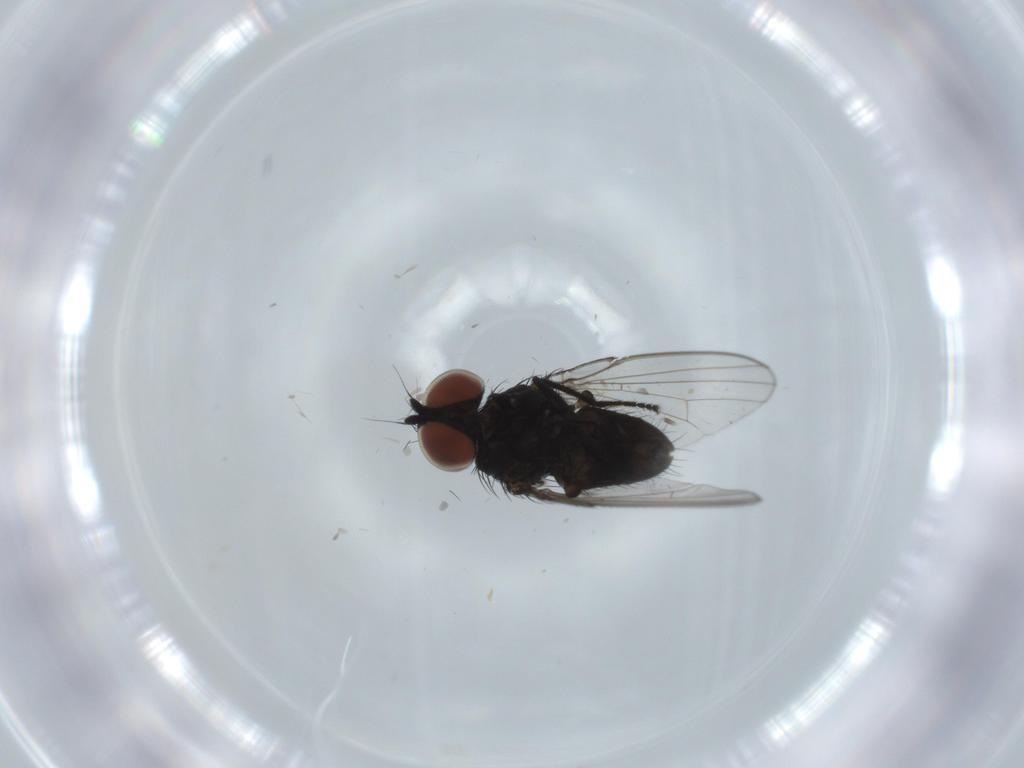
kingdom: Animalia
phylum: Arthropoda
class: Insecta
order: Diptera
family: Milichiidae
